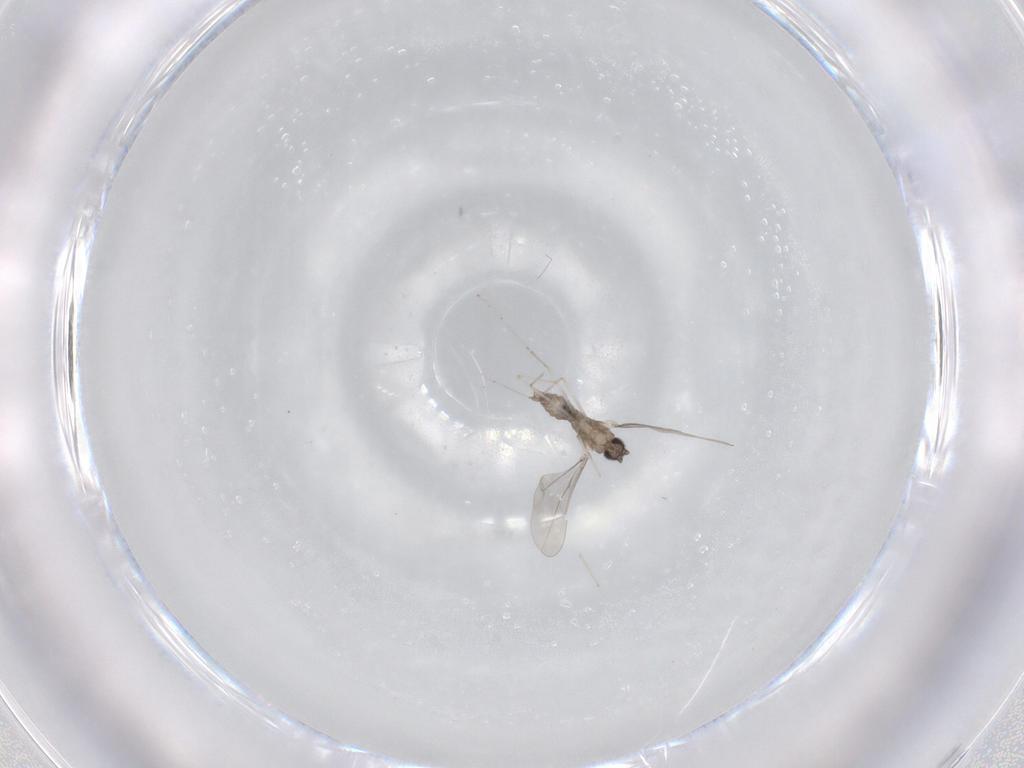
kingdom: Animalia
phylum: Arthropoda
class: Insecta
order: Diptera
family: Cecidomyiidae
